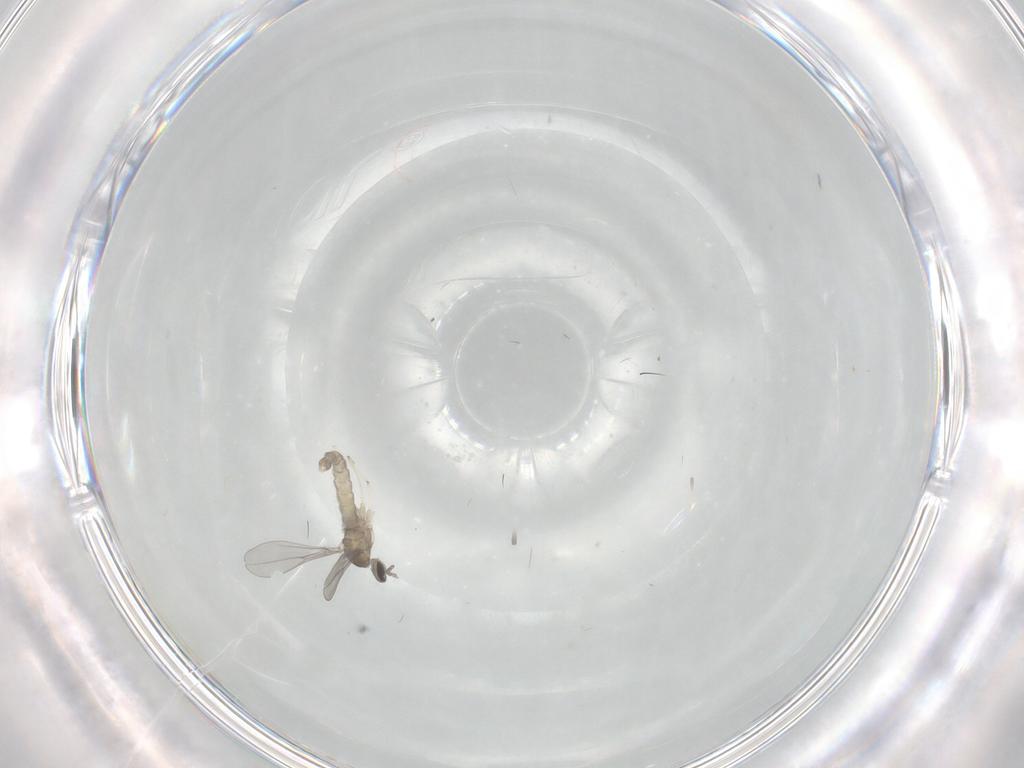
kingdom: Animalia
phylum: Arthropoda
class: Insecta
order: Diptera
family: Cecidomyiidae
